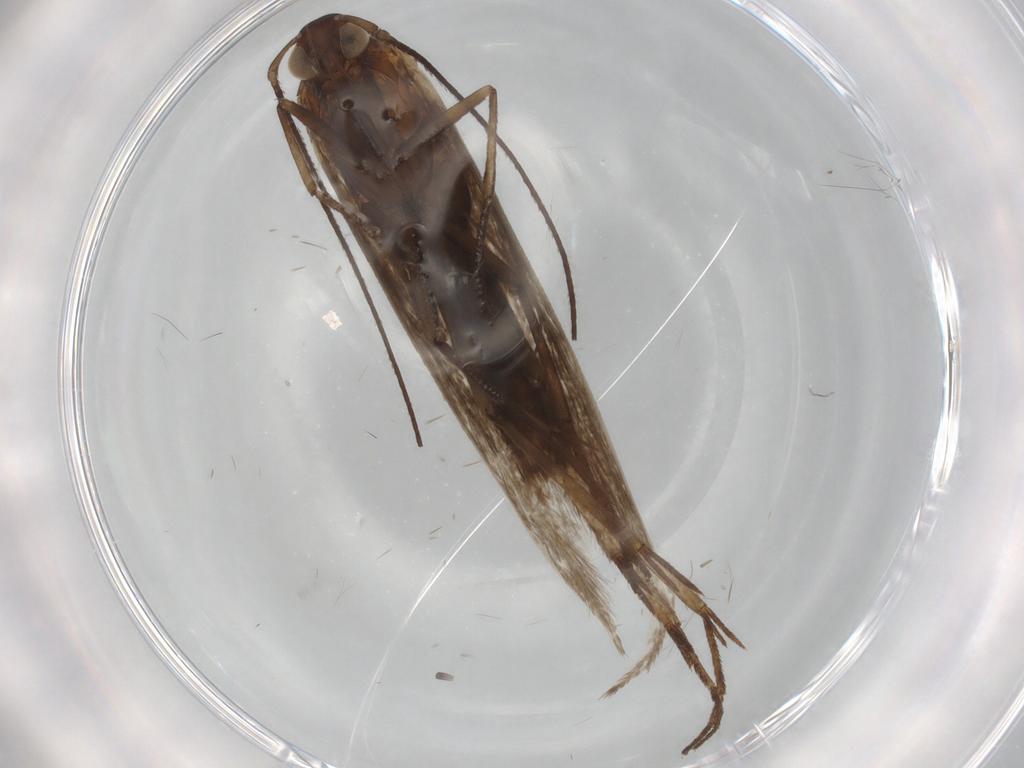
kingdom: Animalia
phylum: Arthropoda
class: Insecta
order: Lepidoptera
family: Coleophoridae
